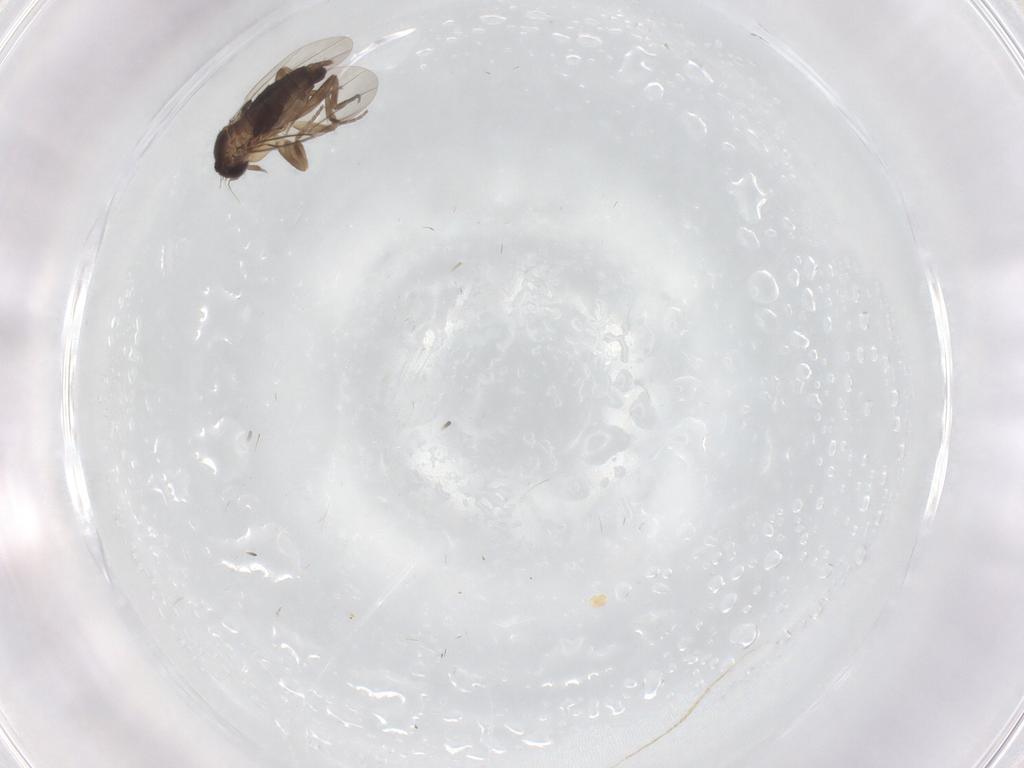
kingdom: Animalia
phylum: Arthropoda
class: Insecta
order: Diptera
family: Phoridae
